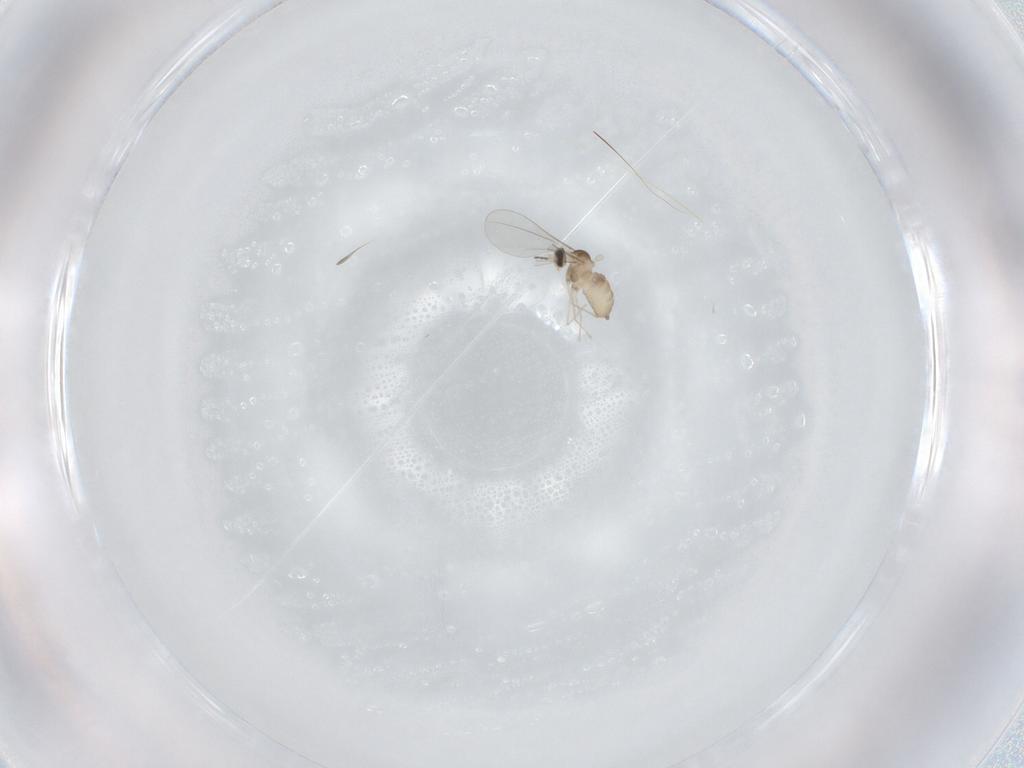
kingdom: Animalia
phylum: Arthropoda
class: Insecta
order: Diptera
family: Cecidomyiidae
